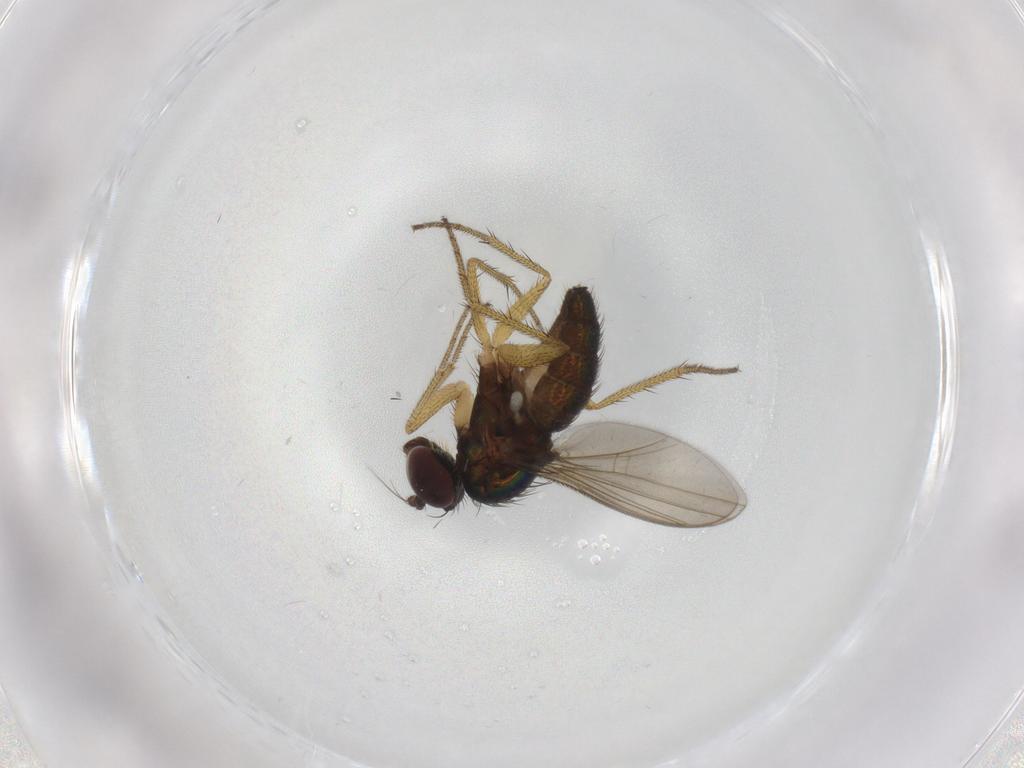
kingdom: Animalia
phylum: Arthropoda
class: Insecta
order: Diptera
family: Dolichopodidae
